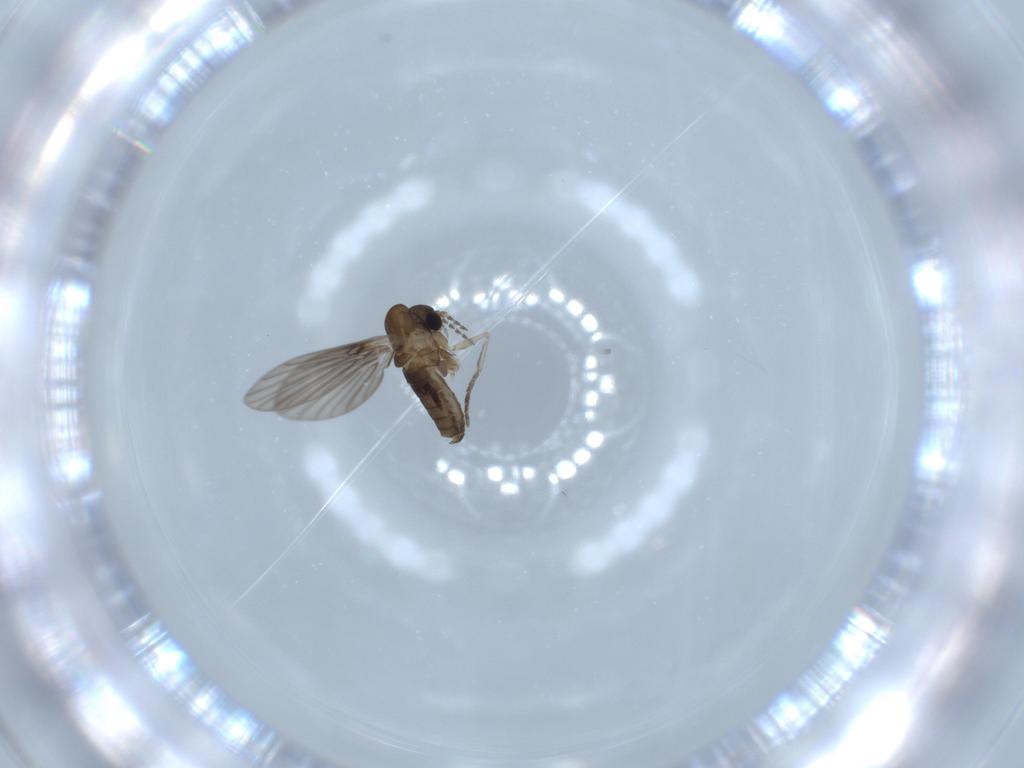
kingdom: Animalia
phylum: Arthropoda
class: Insecta
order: Diptera
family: Psychodidae
